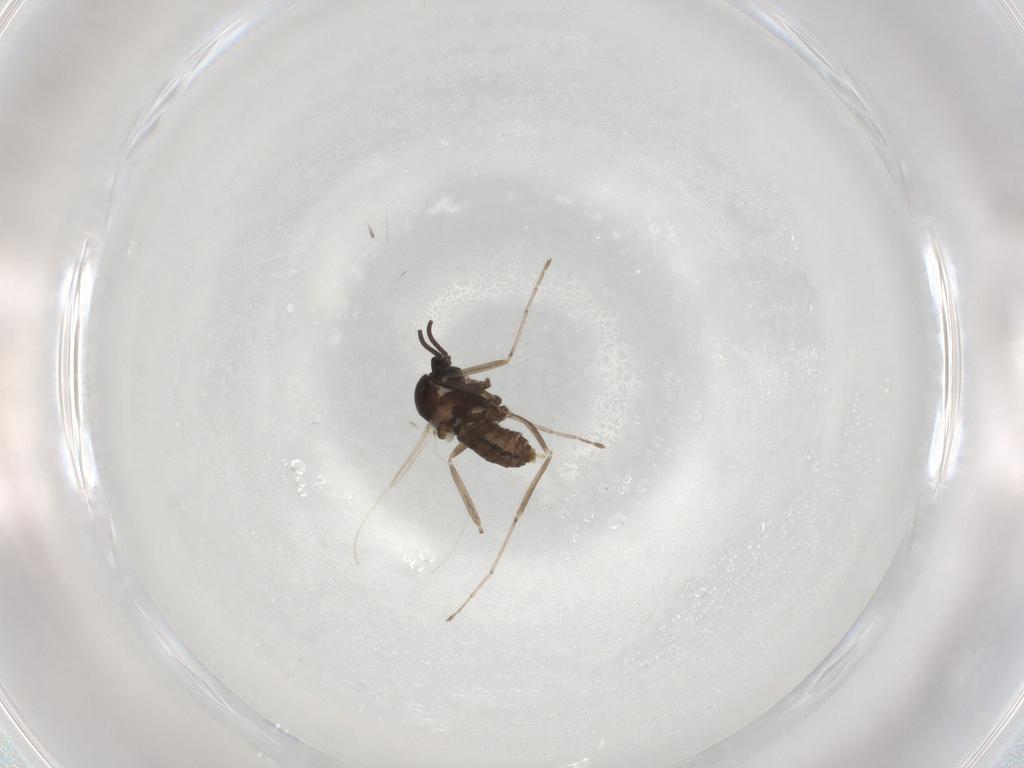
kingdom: Animalia
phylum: Arthropoda
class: Insecta
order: Diptera
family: Cecidomyiidae
